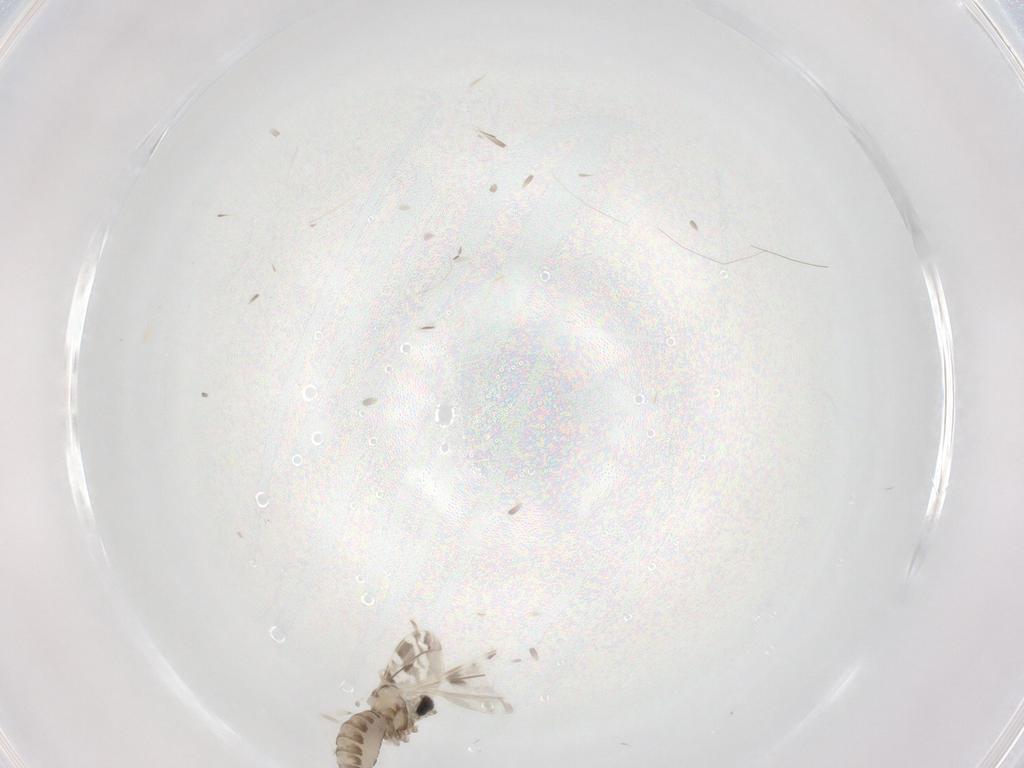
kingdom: Animalia
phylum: Arthropoda
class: Insecta
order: Diptera
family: Cecidomyiidae
